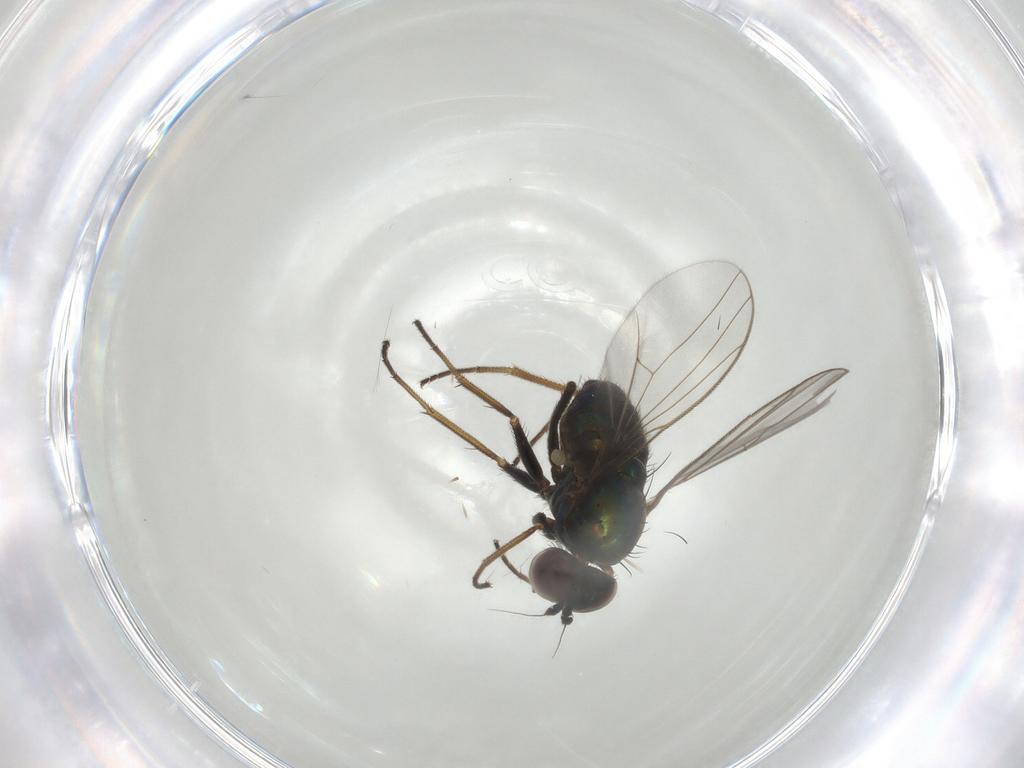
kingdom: Animalia
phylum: Arthropoda
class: Insecta
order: Diptera
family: Dolichopodidae
